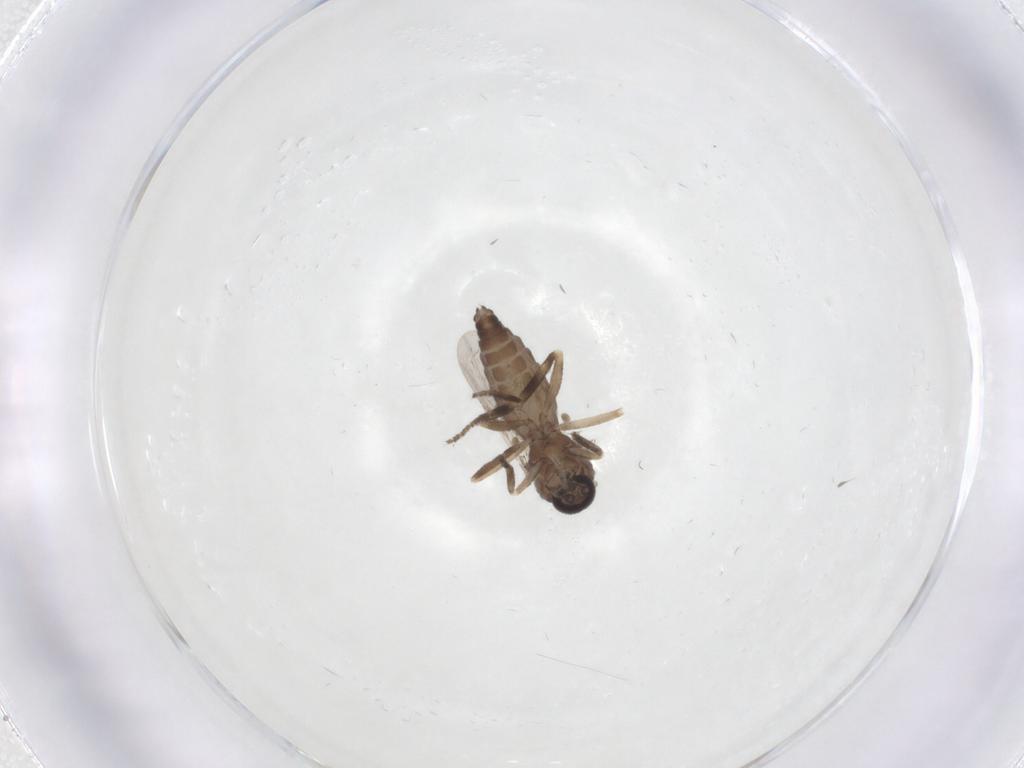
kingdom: Animalia
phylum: Arthropoda
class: Insecta
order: Diptera
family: Ceratopogonidae
